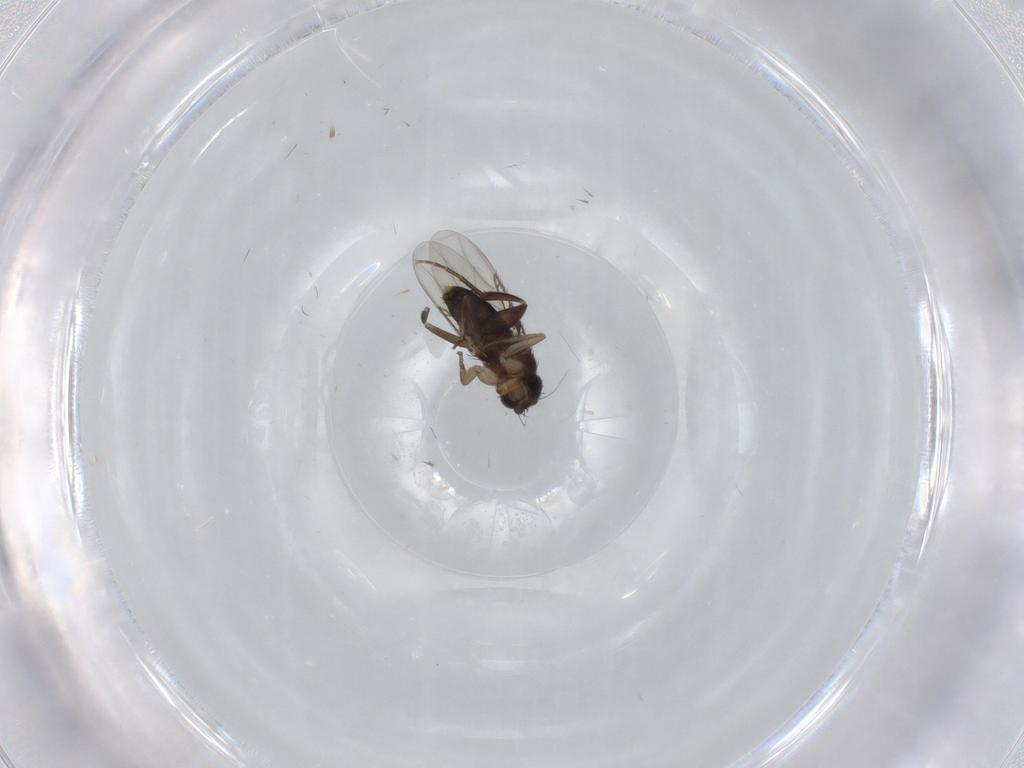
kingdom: Animalia
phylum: Arthropoda
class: Insecta
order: Diptera
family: Phoridae
